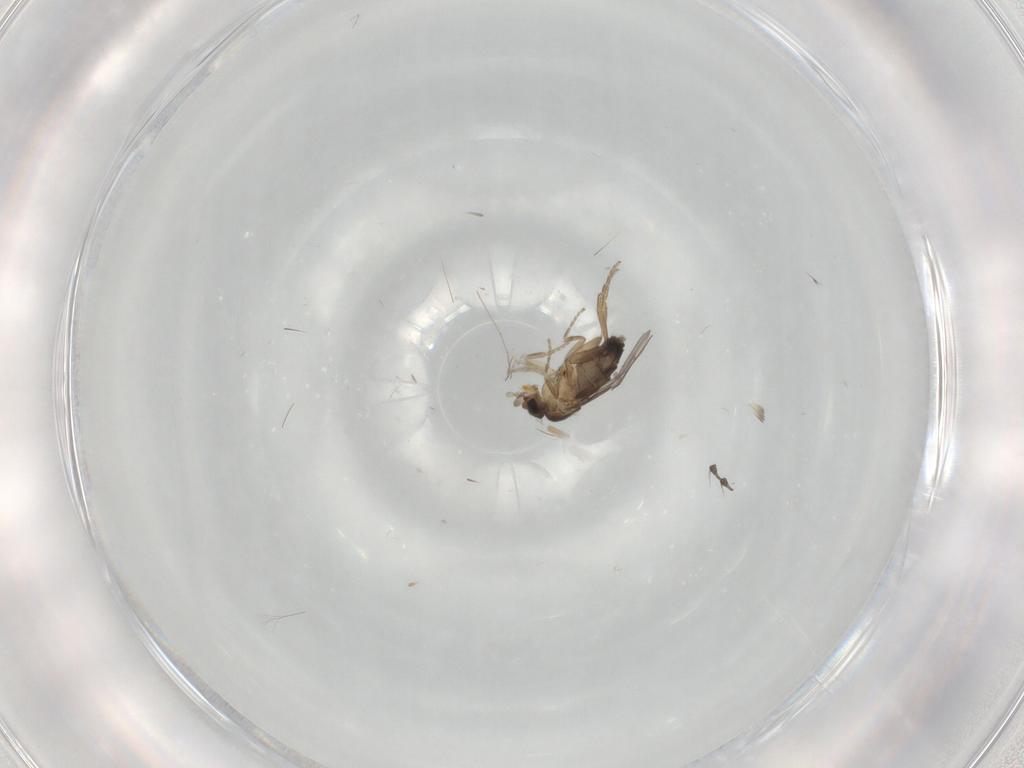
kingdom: Animalia
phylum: Arthropoda
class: Insecta
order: Diptera
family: Cecidomyiidae
